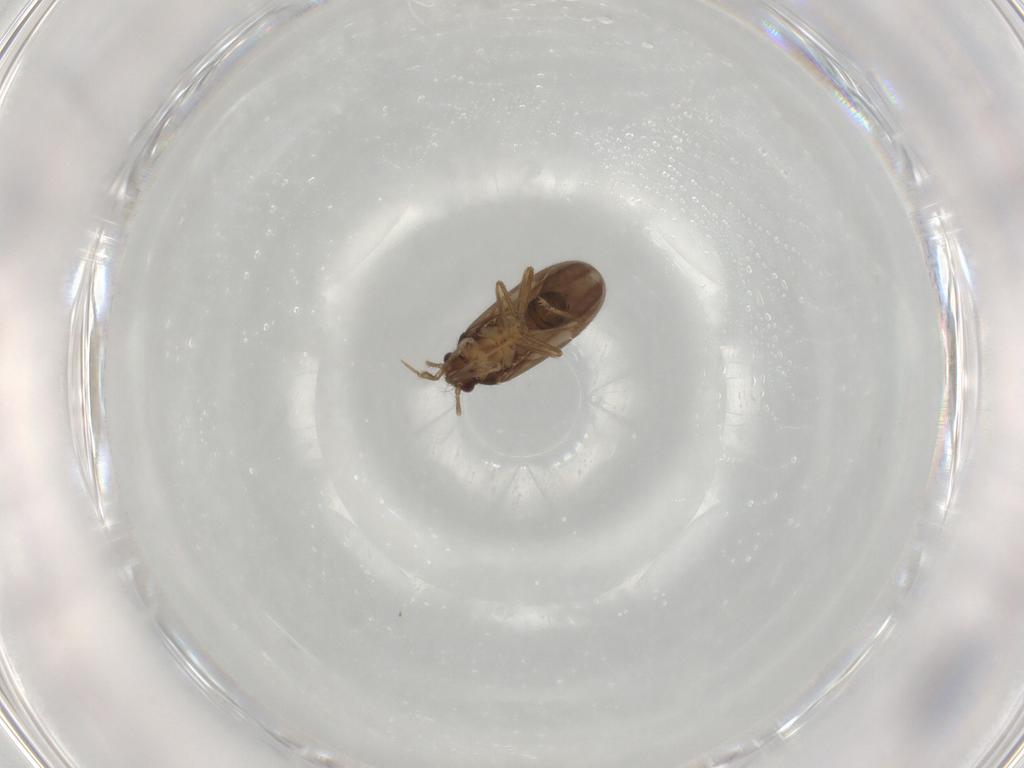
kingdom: Animalia
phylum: Arthropoda
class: Insecta
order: Hemiptera
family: Ceratocombidae
